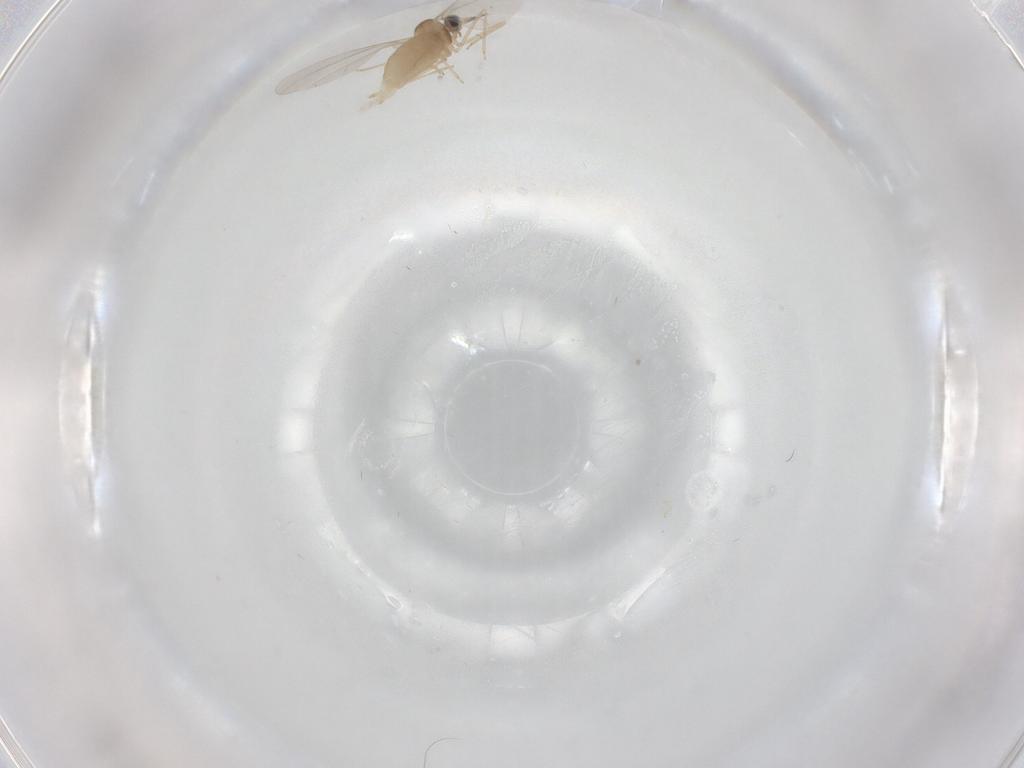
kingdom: Animalia
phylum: Arthropoda
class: Insecta
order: Diptera
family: Cecidomyiidae
